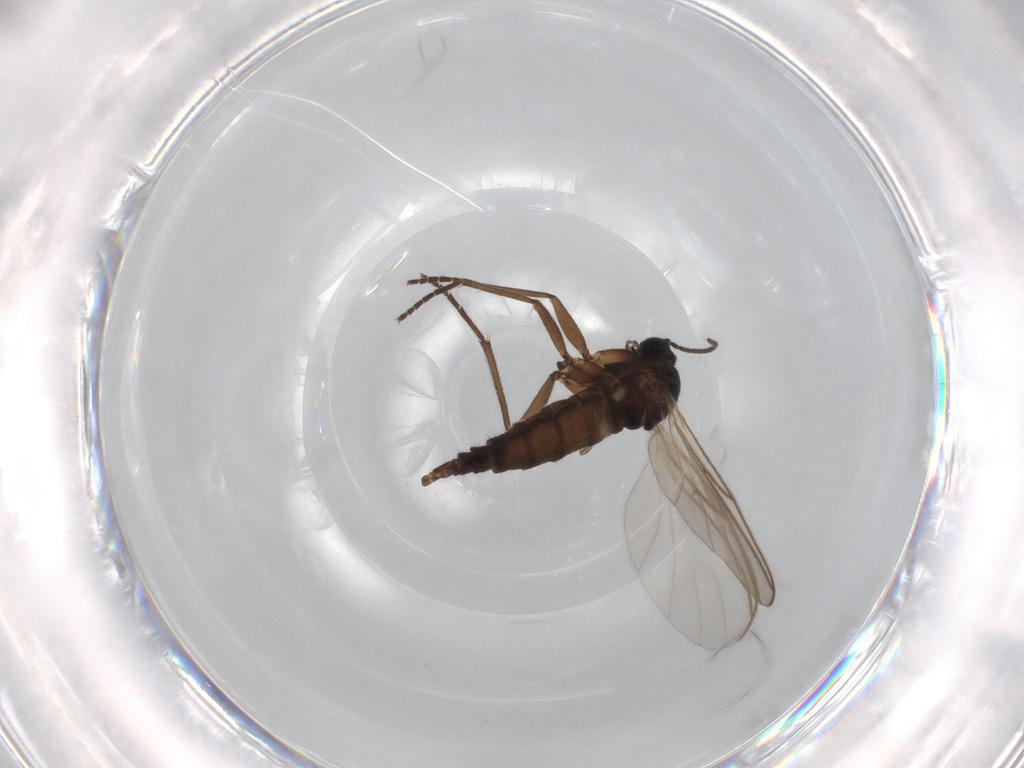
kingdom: Animalia
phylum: Arthropoda
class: Insecta
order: Diptera
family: Sciaridae
